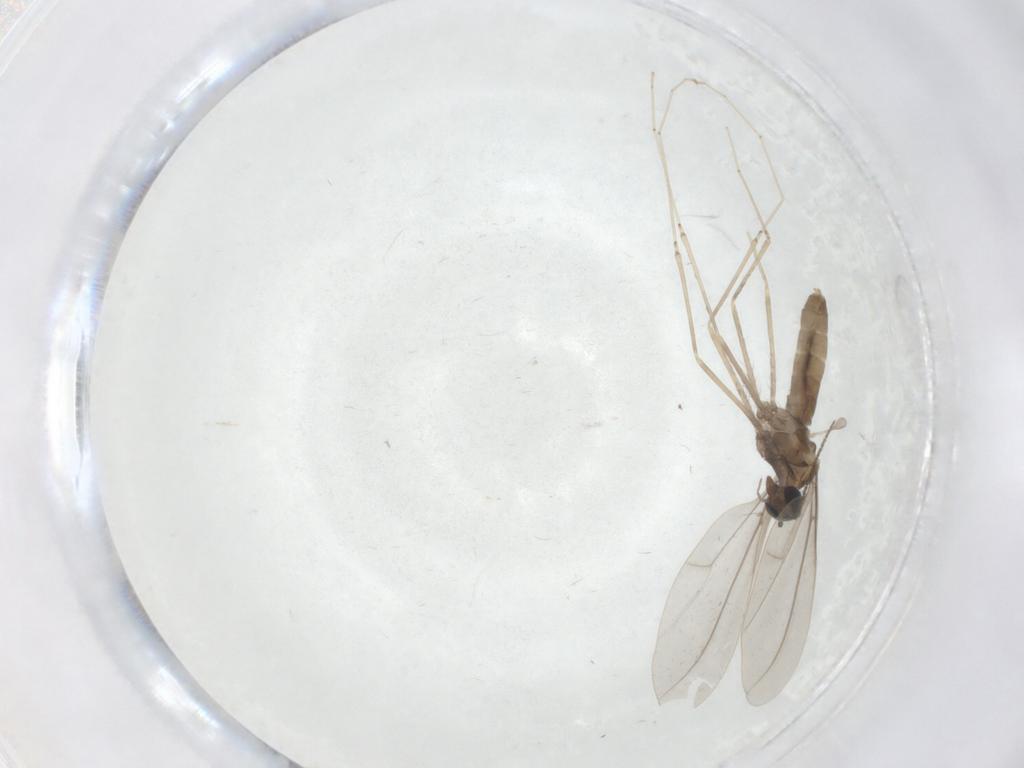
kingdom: Animalia
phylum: Arthropoda
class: Insecta
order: Diptera
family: Cecidomyiidae
